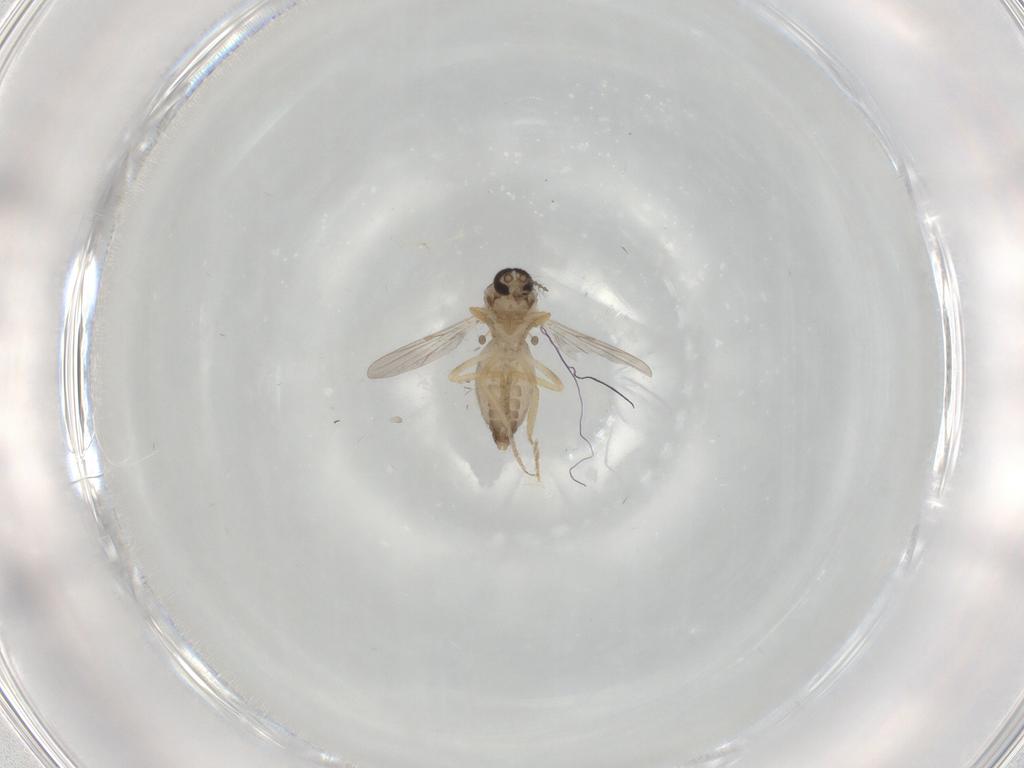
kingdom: Animalia
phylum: Arthropoda
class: Insecta
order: Diptera
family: Ceratopogonidae
